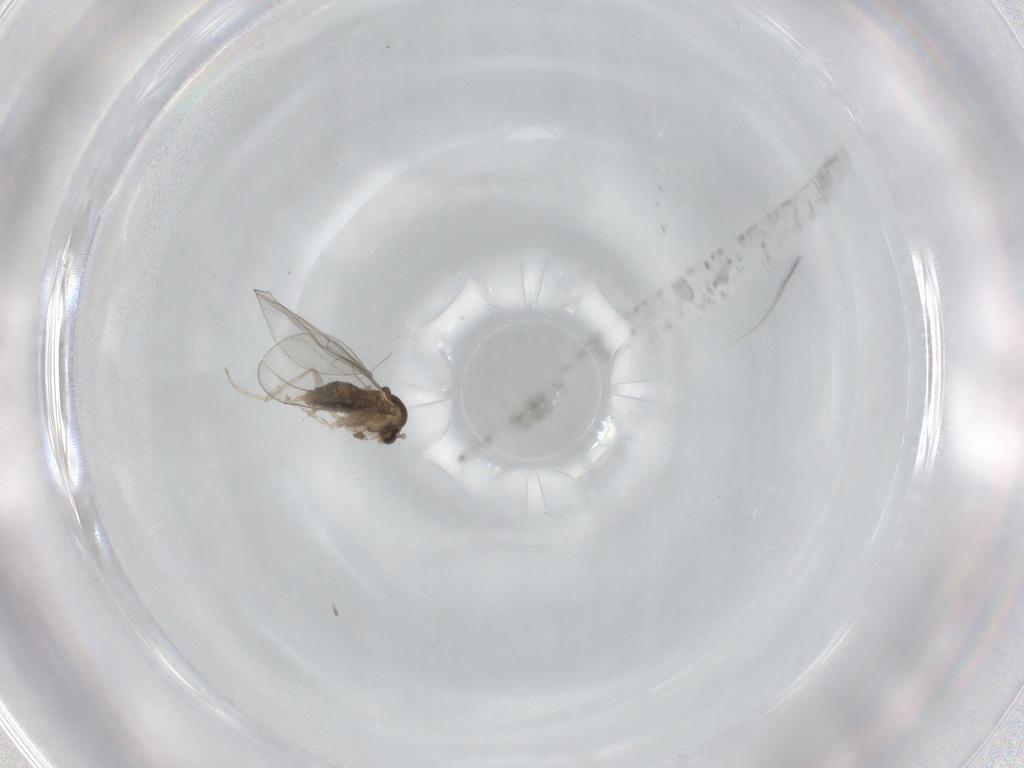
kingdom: Animalia
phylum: Arthropoda
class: Insecta
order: Diptera
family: Cecidomyiidae
